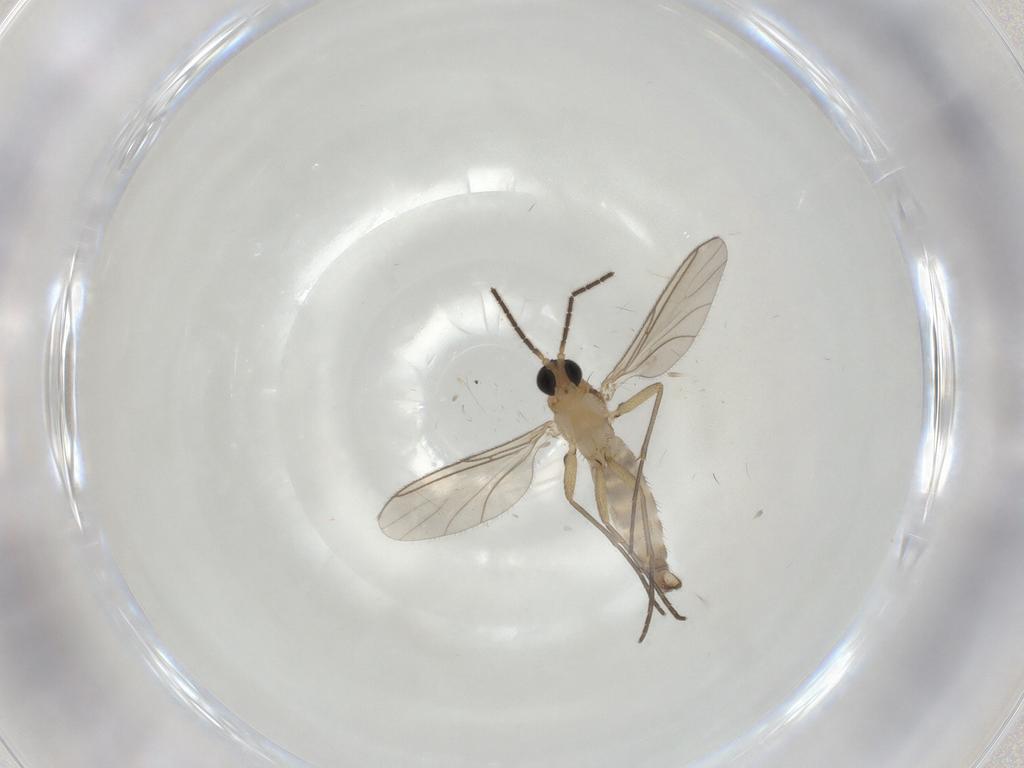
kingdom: Animalia
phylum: Arthropoda
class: Insecta
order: Diptera
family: Sciaridae
